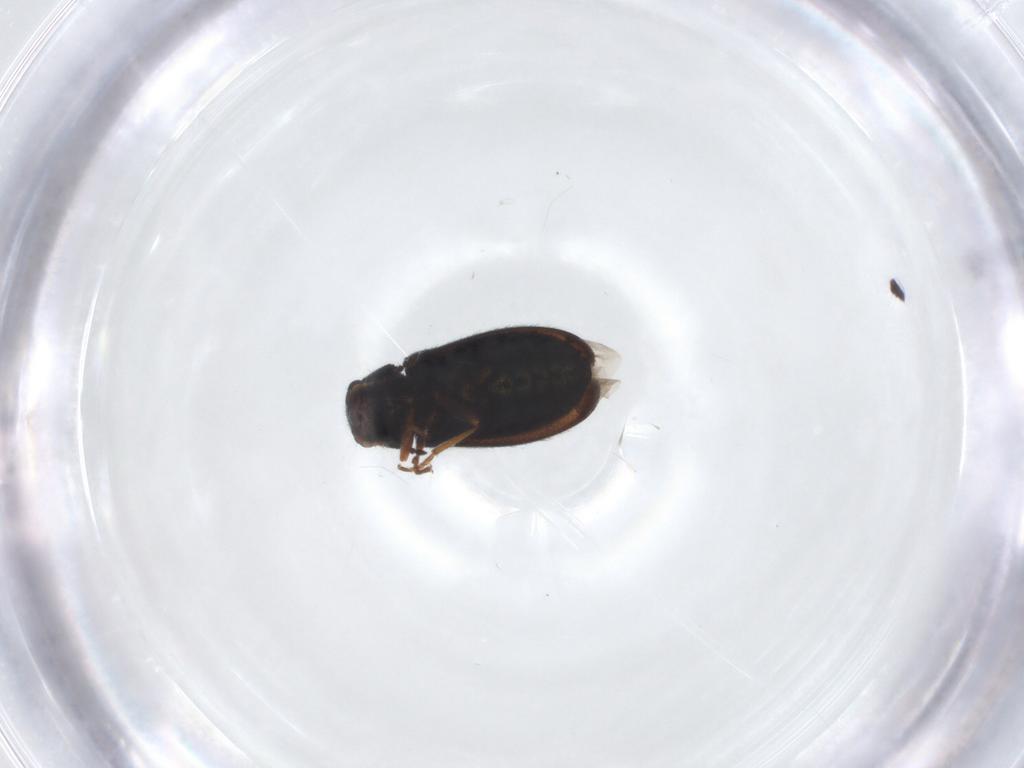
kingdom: Animalia
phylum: Arthropoda
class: Insecta
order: Coleoptera
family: Melyridae
